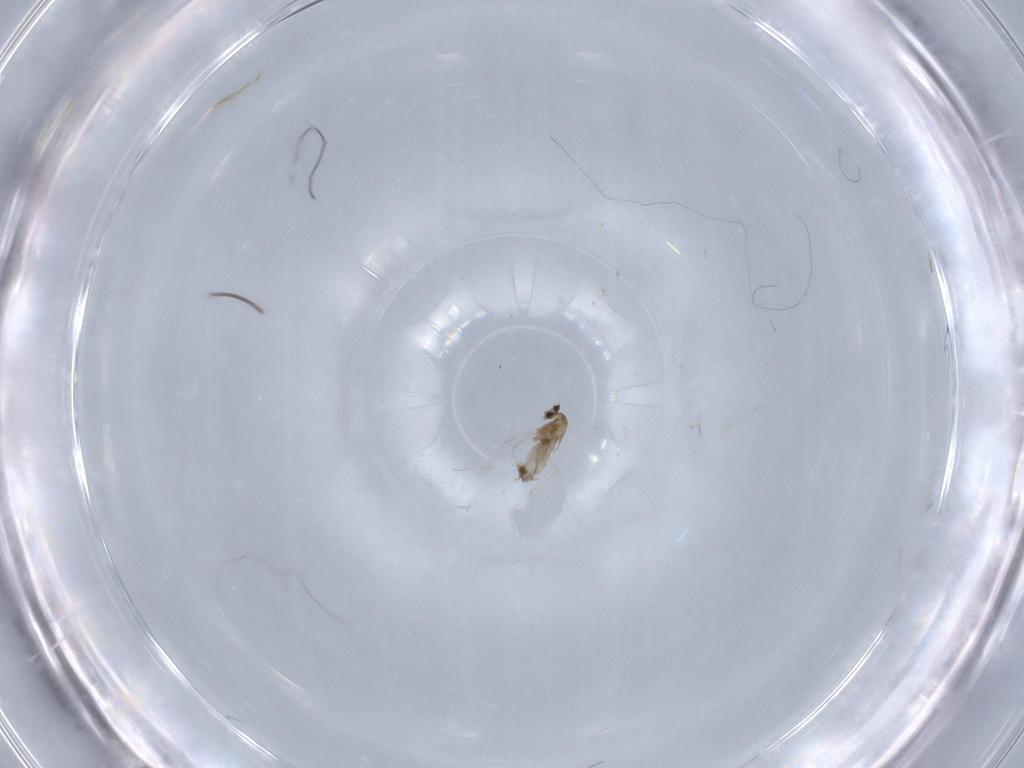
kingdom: Animalia
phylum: Arthropoda
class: Insecta
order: Diptera
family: Cecidomyiidae
